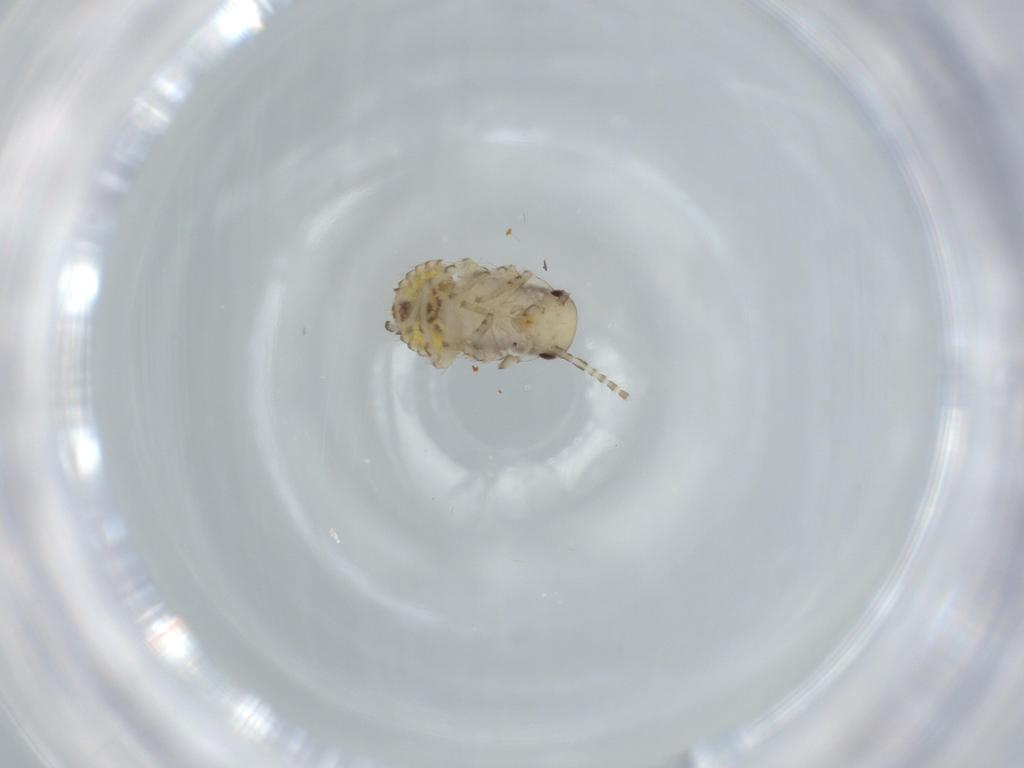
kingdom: Animalia
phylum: Arthropoda
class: Insecta
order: Blattodea
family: Ectobiidae
